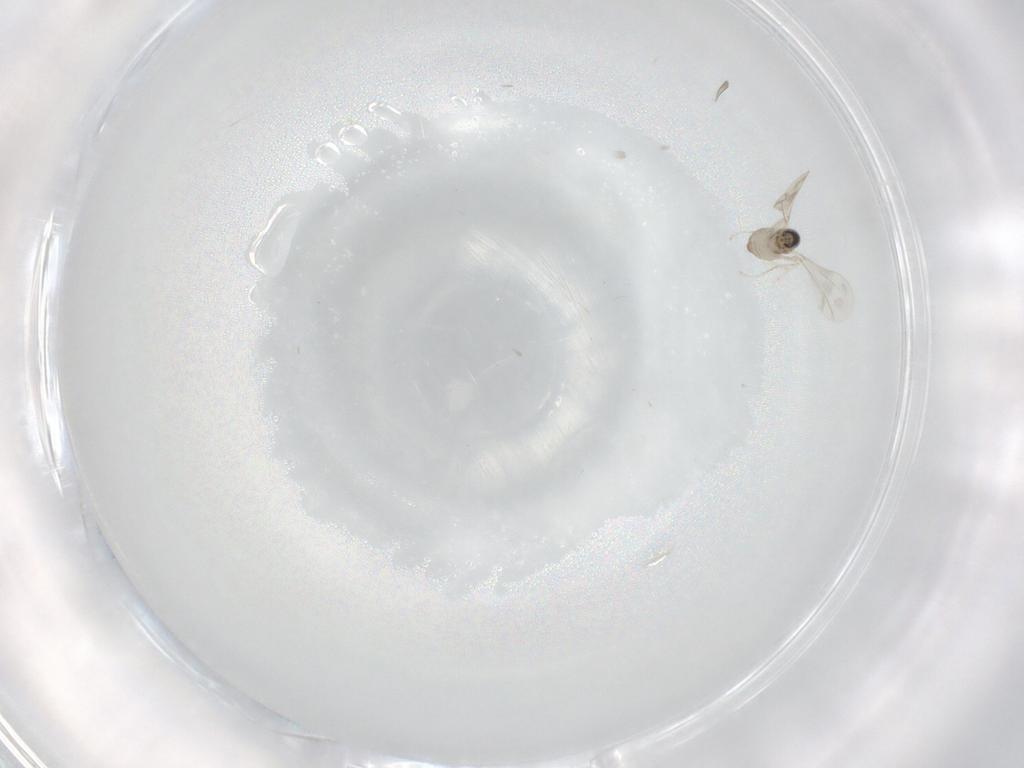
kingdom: Animalia
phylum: Arthropoda
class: Insecta
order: Diptera
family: Cecidomyiidae
